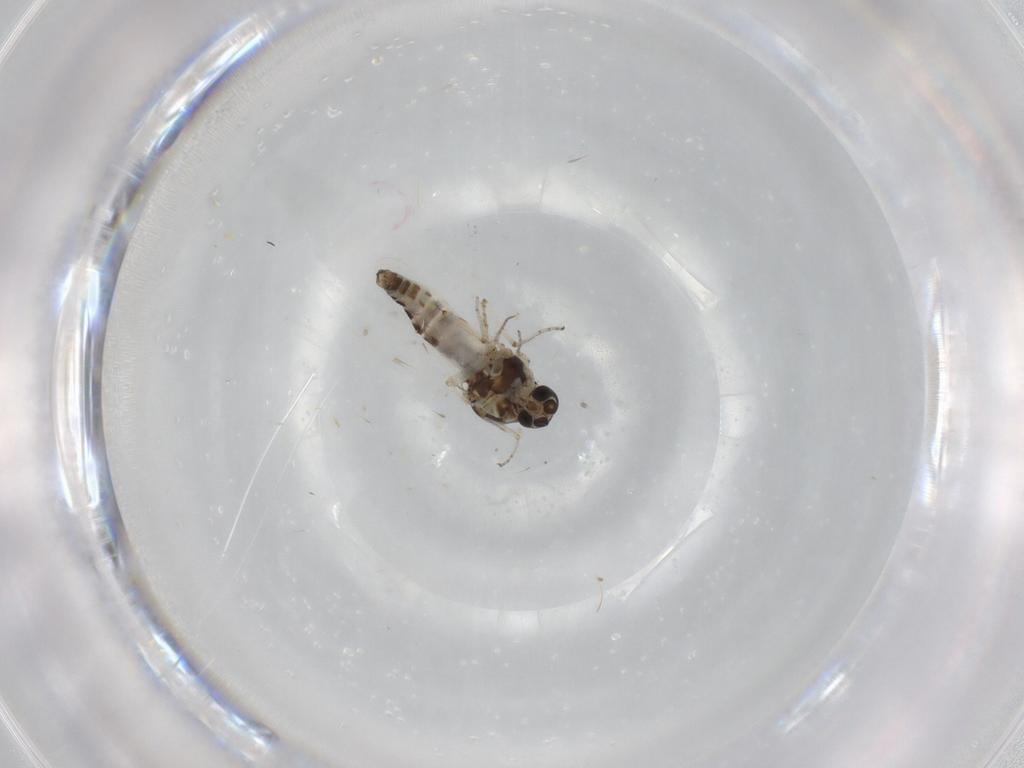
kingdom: Animalia
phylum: Arthropoda
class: Insecta
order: Diptera
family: Ceratopogonidae
